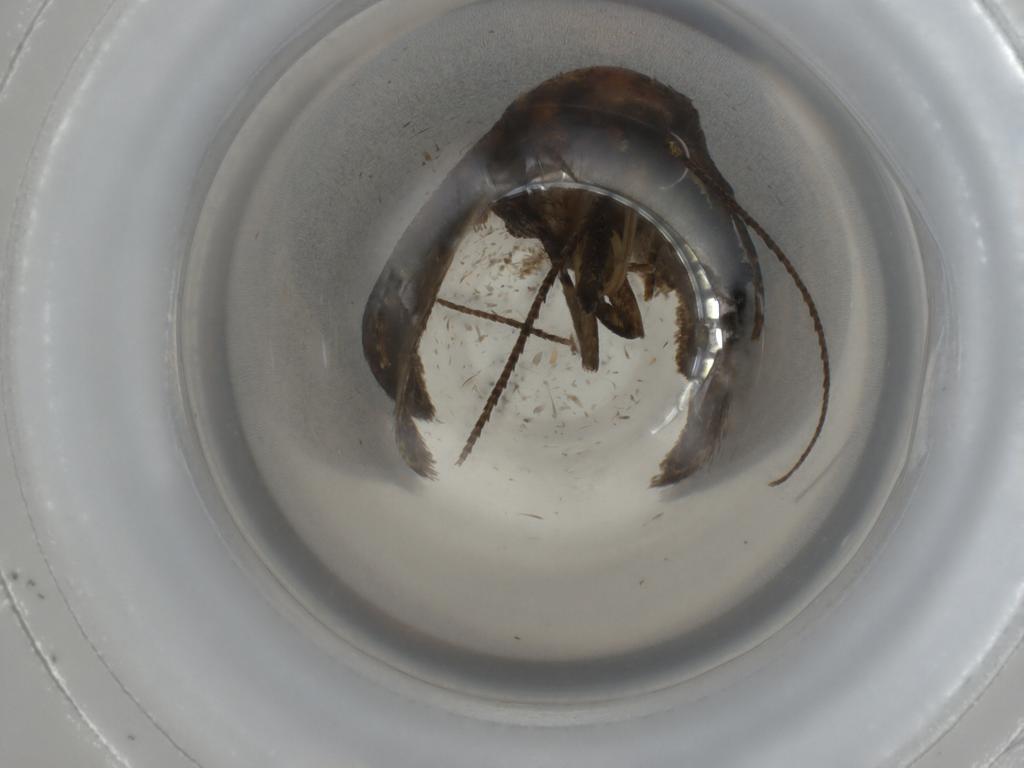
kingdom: Animalia
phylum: Arthropoda
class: Insecta
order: Lepidoptera
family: Erebidae
